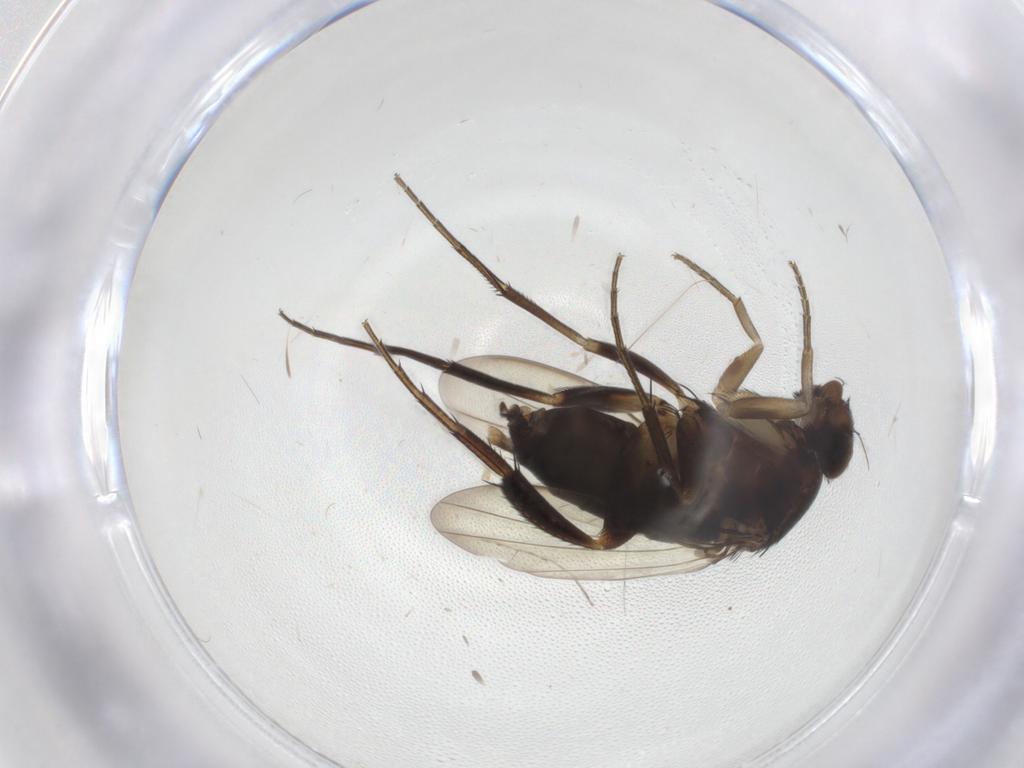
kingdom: Animalia
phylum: Arthropoda
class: Insecta
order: Diptera
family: Phoridae
